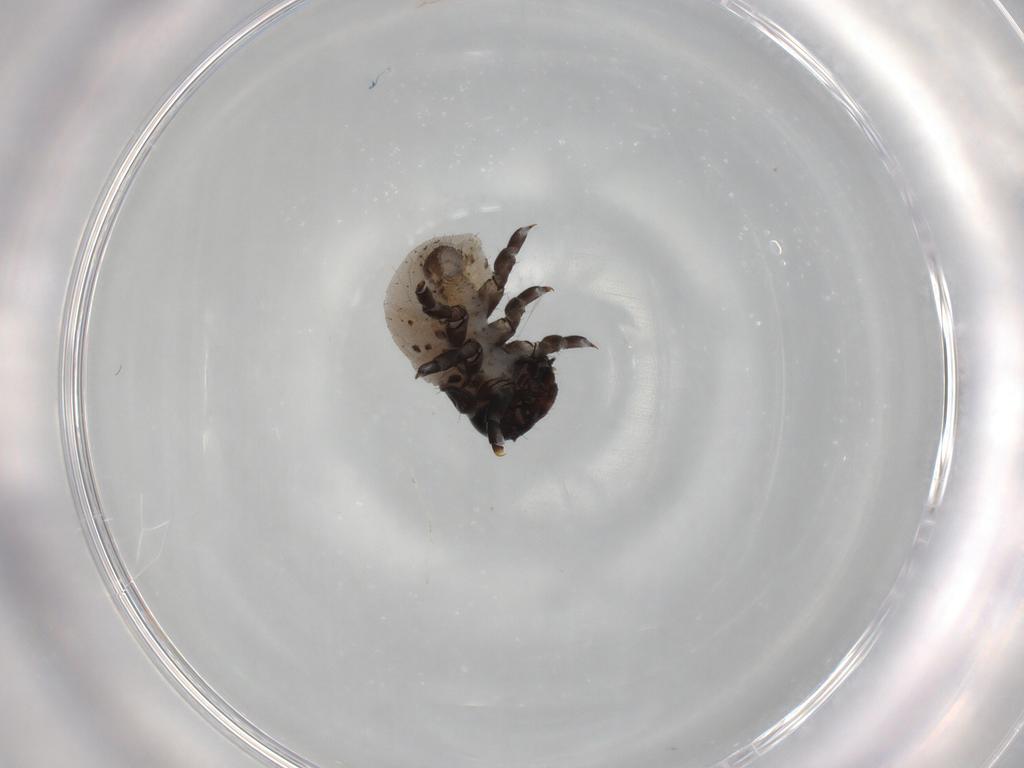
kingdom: Animalia
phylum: Arthropoda
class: Insecta
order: Coleoptera
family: Chrysomelidae
